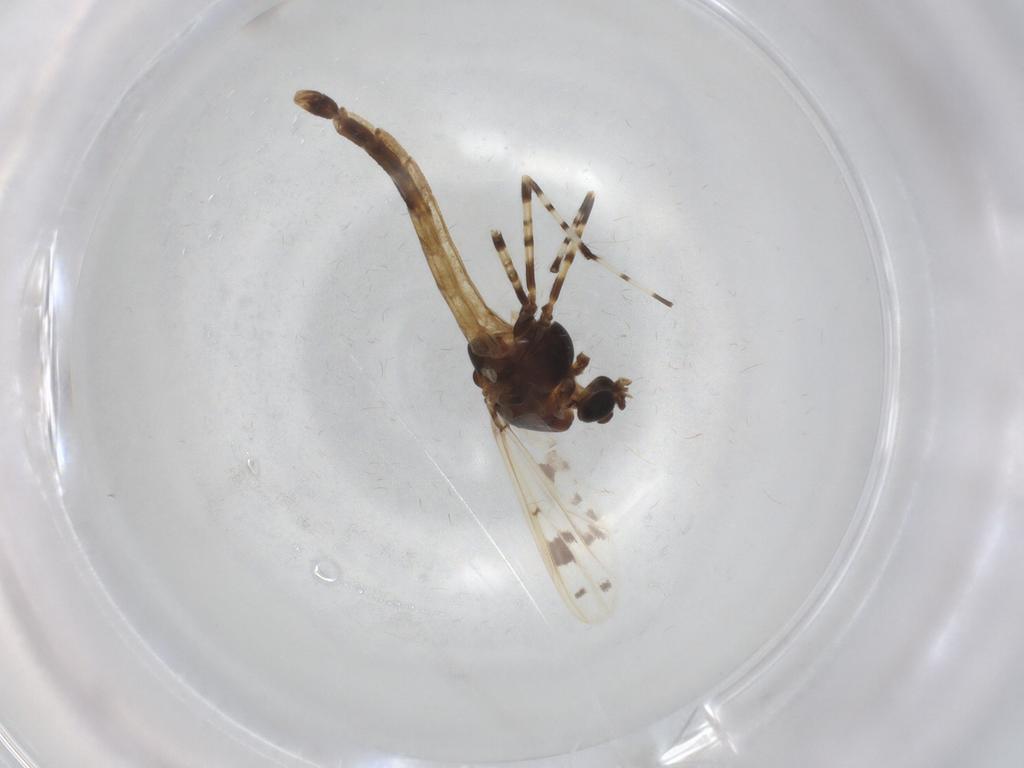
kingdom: Animalia
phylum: Arthropoda
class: Insecta
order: Diptera
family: Chironomidae
